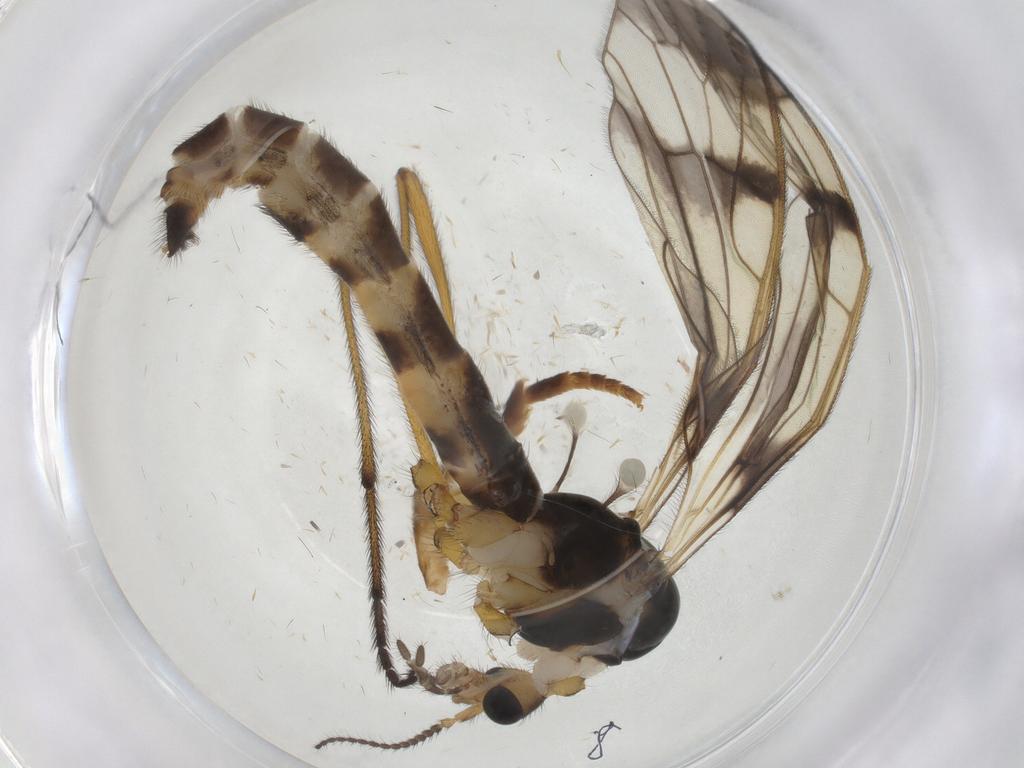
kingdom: Animalia
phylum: Arthropoda
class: Insecta
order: Diptera
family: Limoniidae
